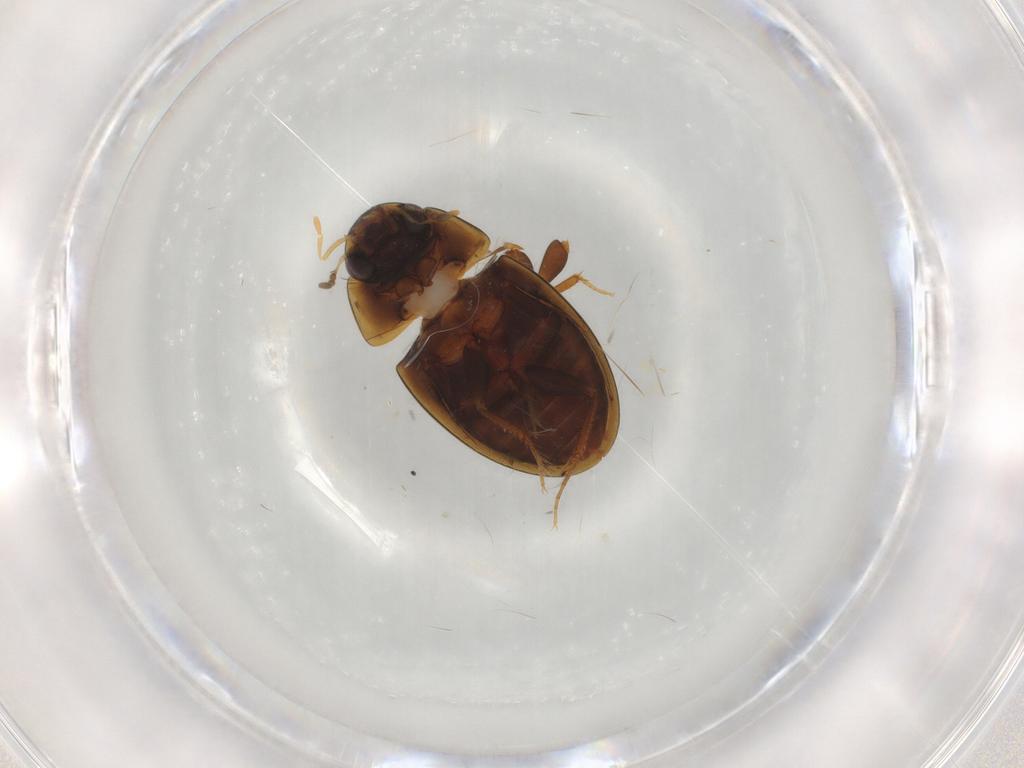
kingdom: Animalia
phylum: Arthropoda
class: Insecta
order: Coleoptera
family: Hydrophilidae
